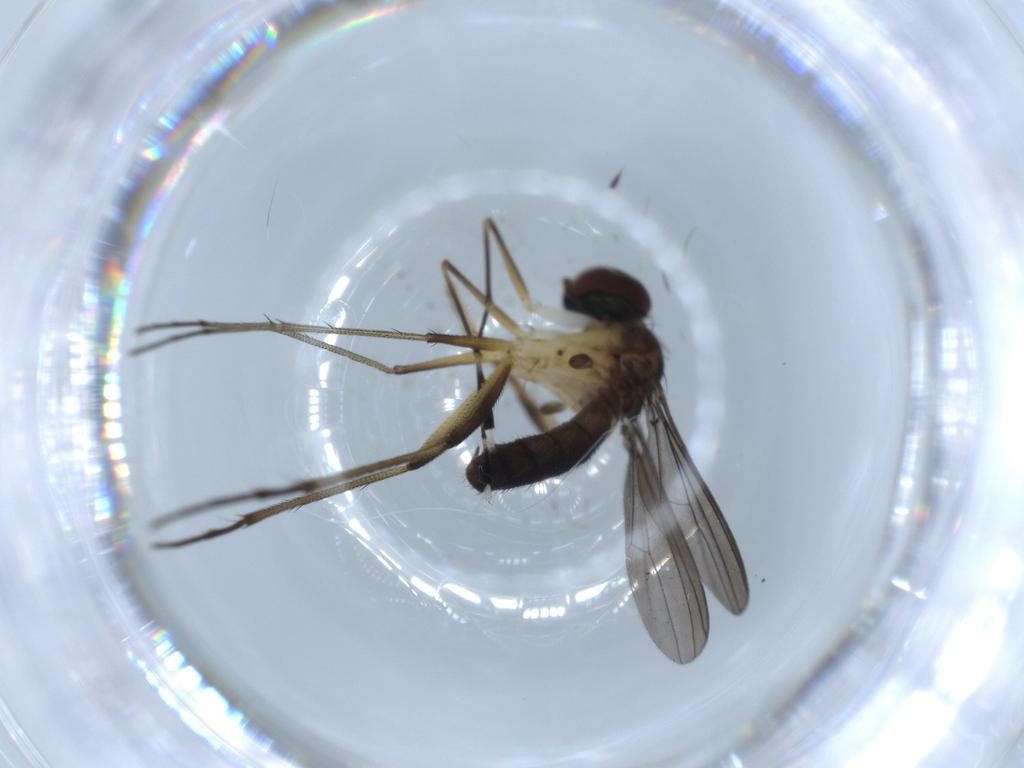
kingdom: Animalia
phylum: Arthropoda
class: Insecta
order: Diptera
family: Dolichopodidae
